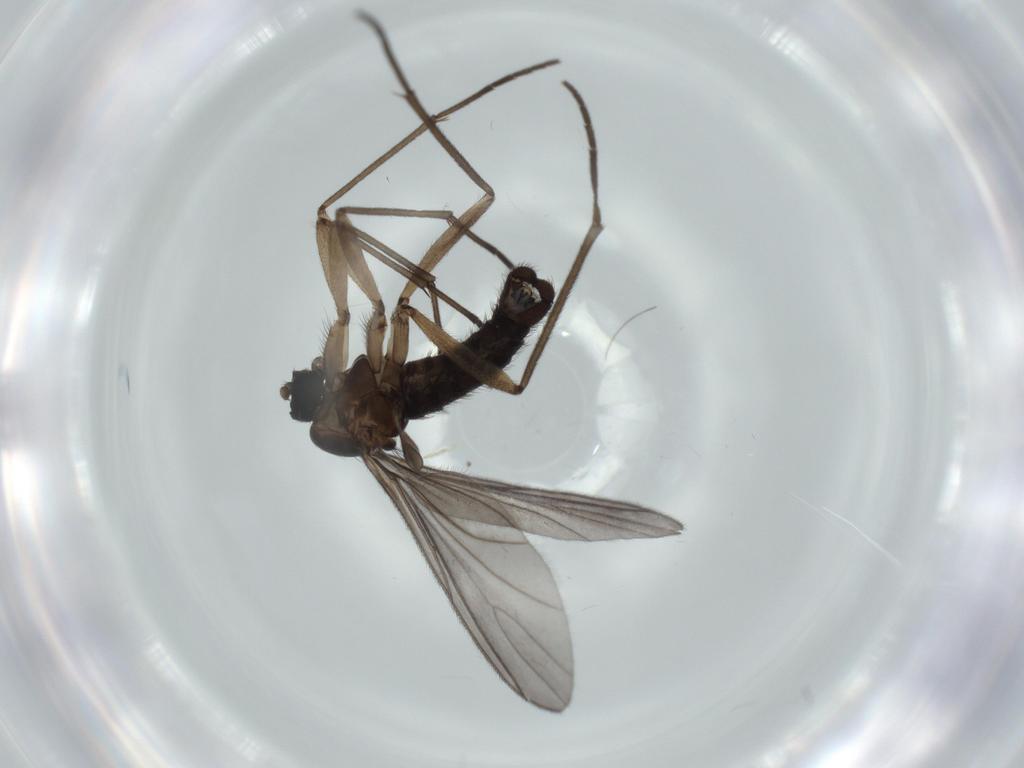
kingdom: Animalia
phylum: Arthropoda
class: Insecta
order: Diptera
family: Sciaridae
